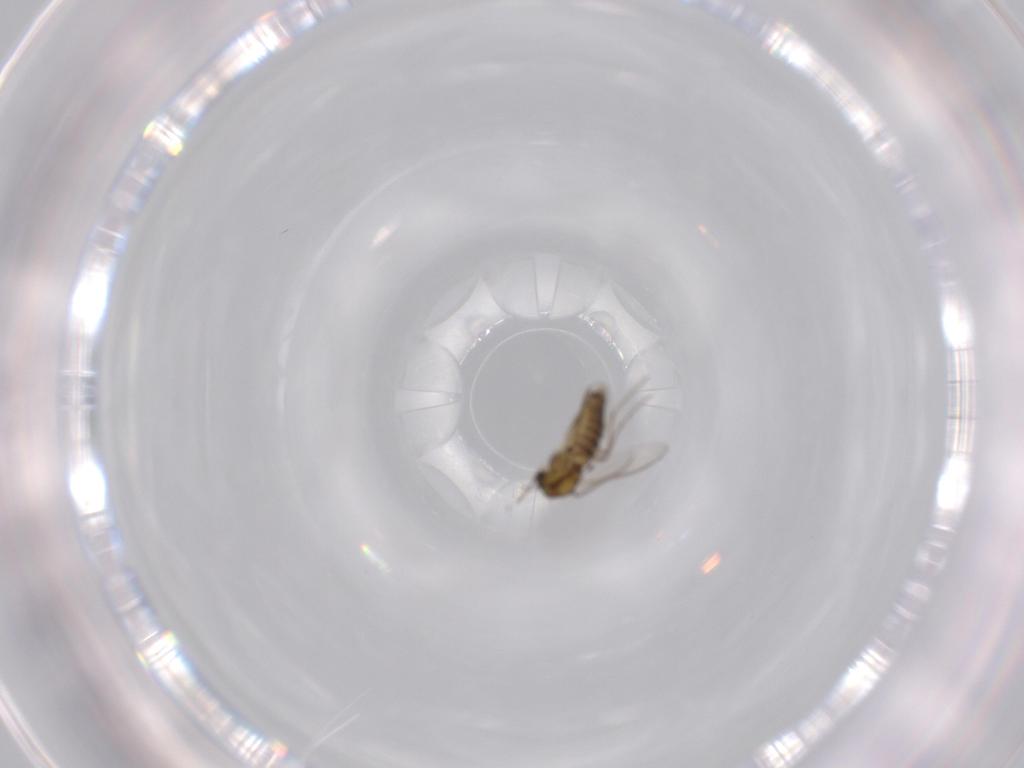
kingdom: Animalia
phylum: Arthropoda
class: Insecta
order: Diptera
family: Chironomidae
